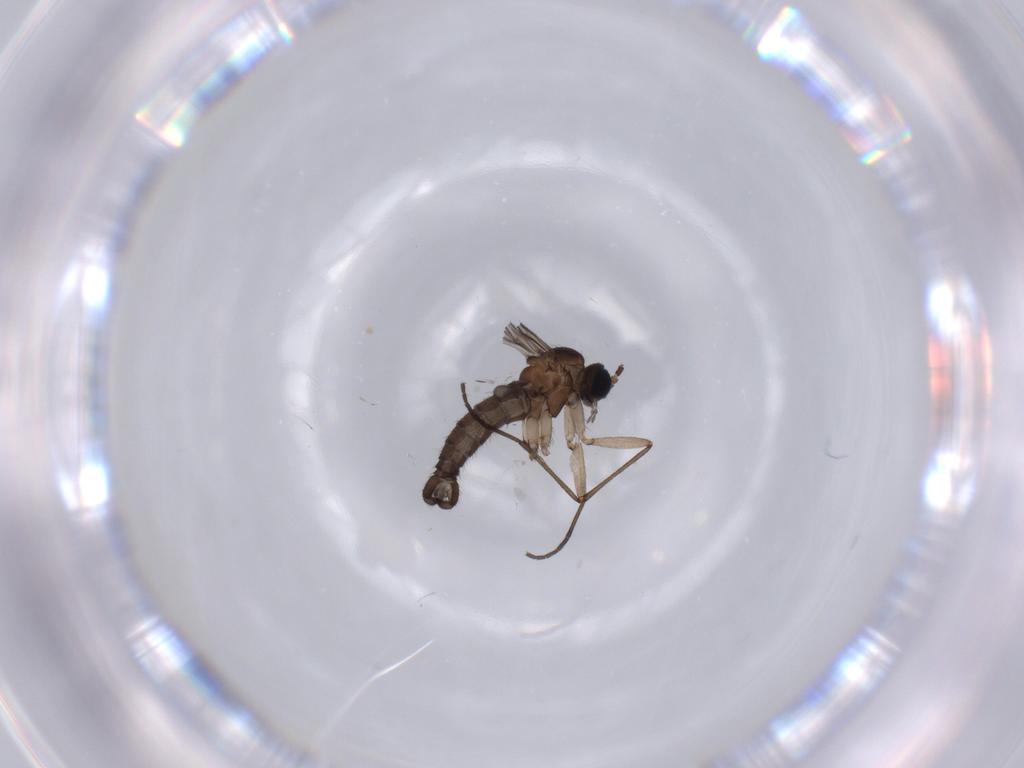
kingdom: Animalia
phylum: Arthropoda
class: Insecta
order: Diptera
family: Sciaridae
